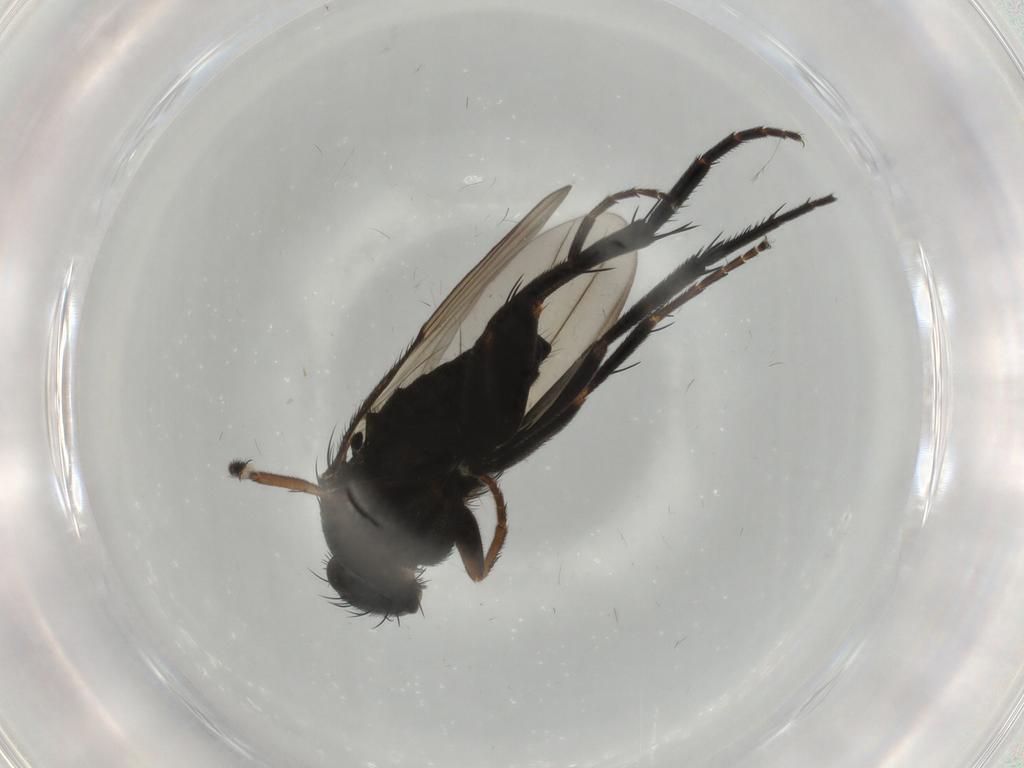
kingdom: Animalia
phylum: Arthropoda
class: Insecta
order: Diptera
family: Phoridae
